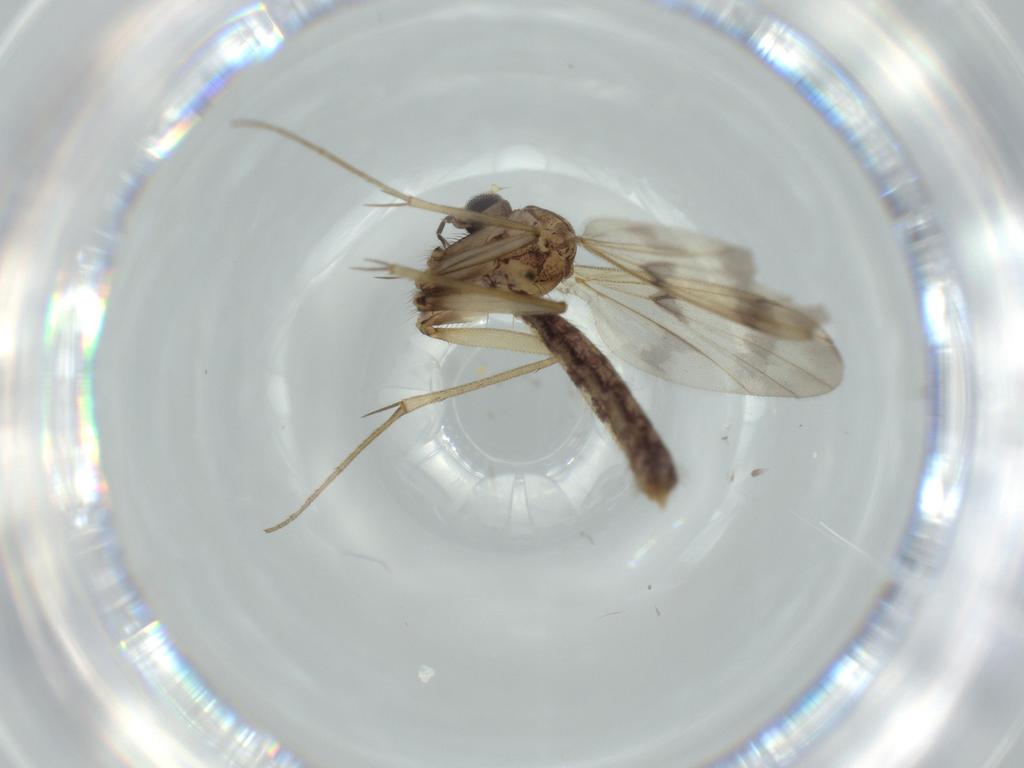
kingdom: Animalia
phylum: Arthropoda
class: Insecta
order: Diptera
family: Mycetophilidae
